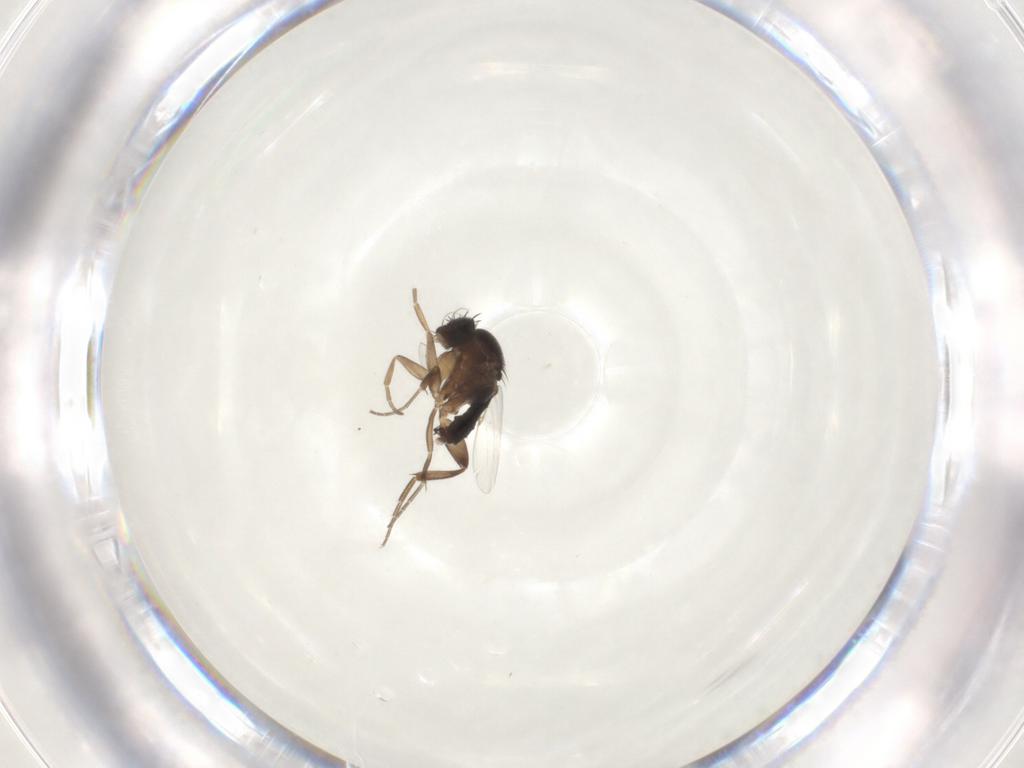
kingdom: Animalia
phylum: Arthropoda
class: Insecta
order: Diptera
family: Phoridae
